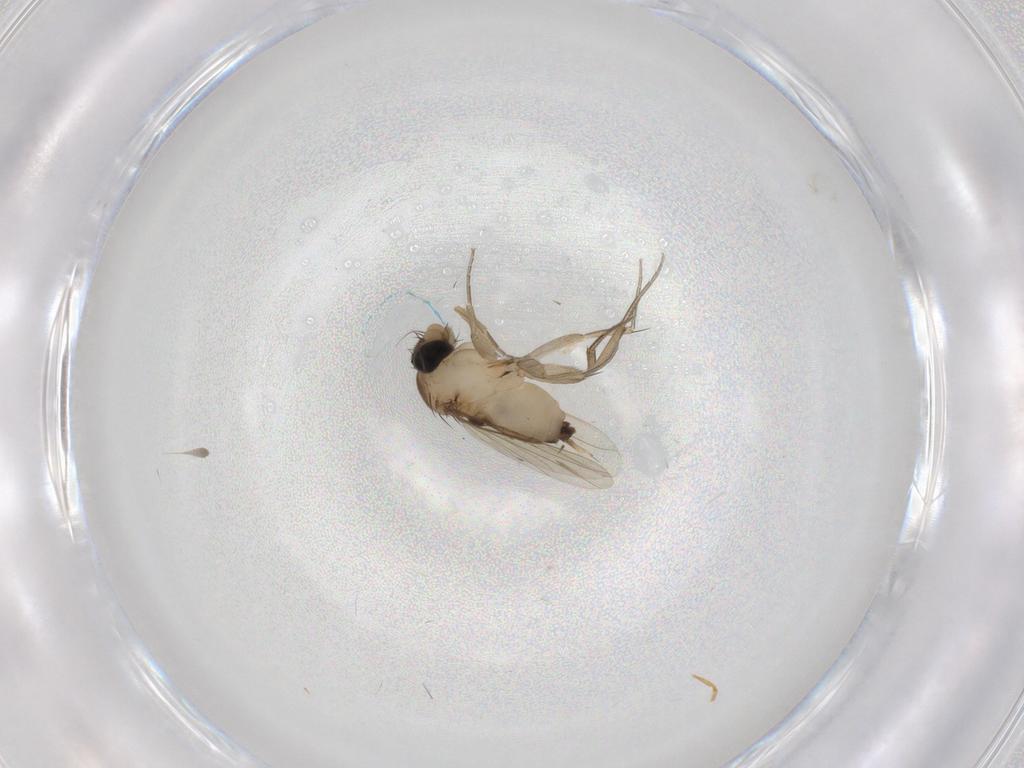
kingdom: Animalia
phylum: Arthropoda
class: Insecta
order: Diptera
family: Phoridae
